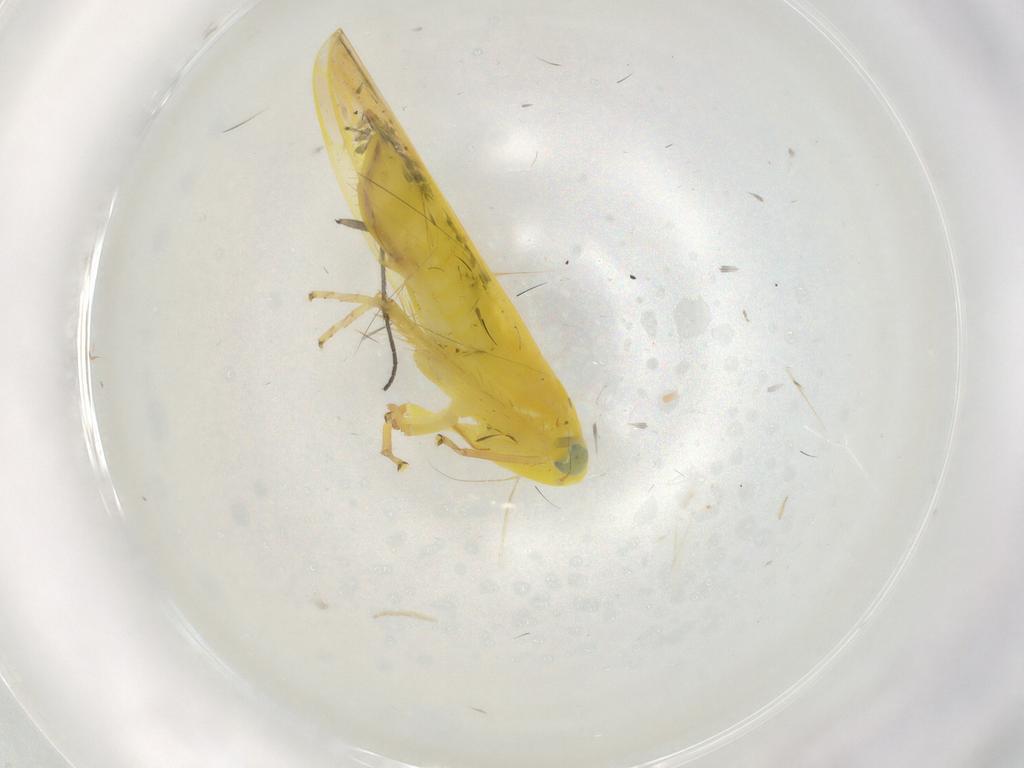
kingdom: Animalia
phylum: Arthropoda
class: Insecta
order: Hemiptera
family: Cicadellidae
